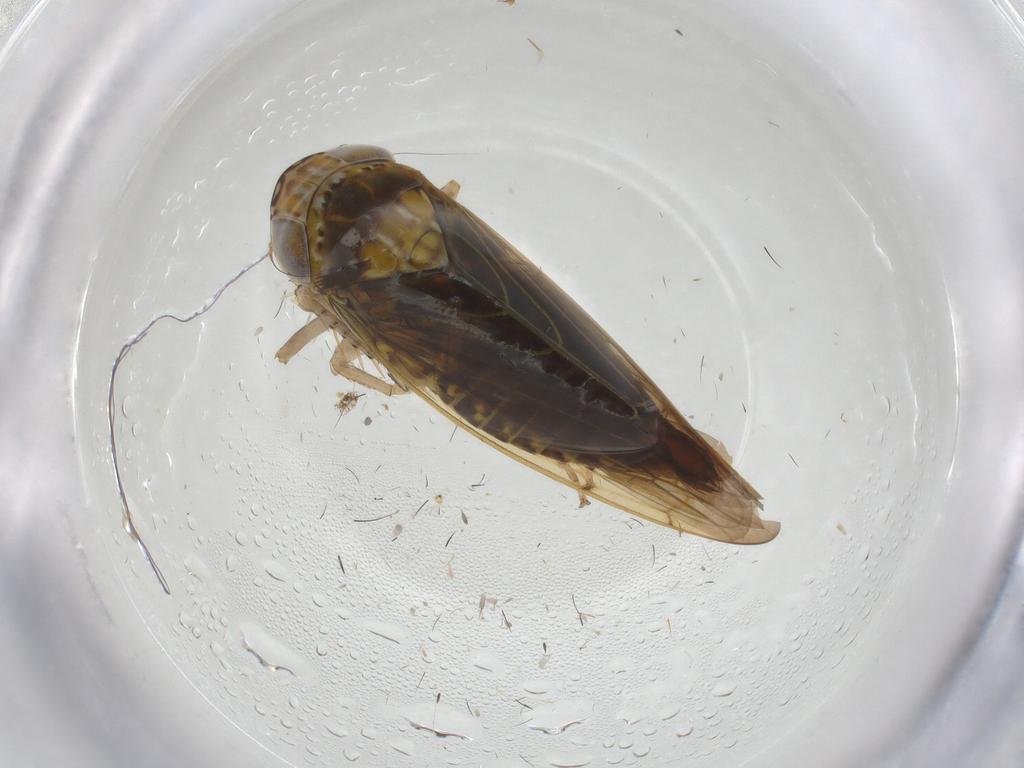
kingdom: Animalia
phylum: Arthropoda
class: Insecta
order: Hemiptera
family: Cicadellidae
